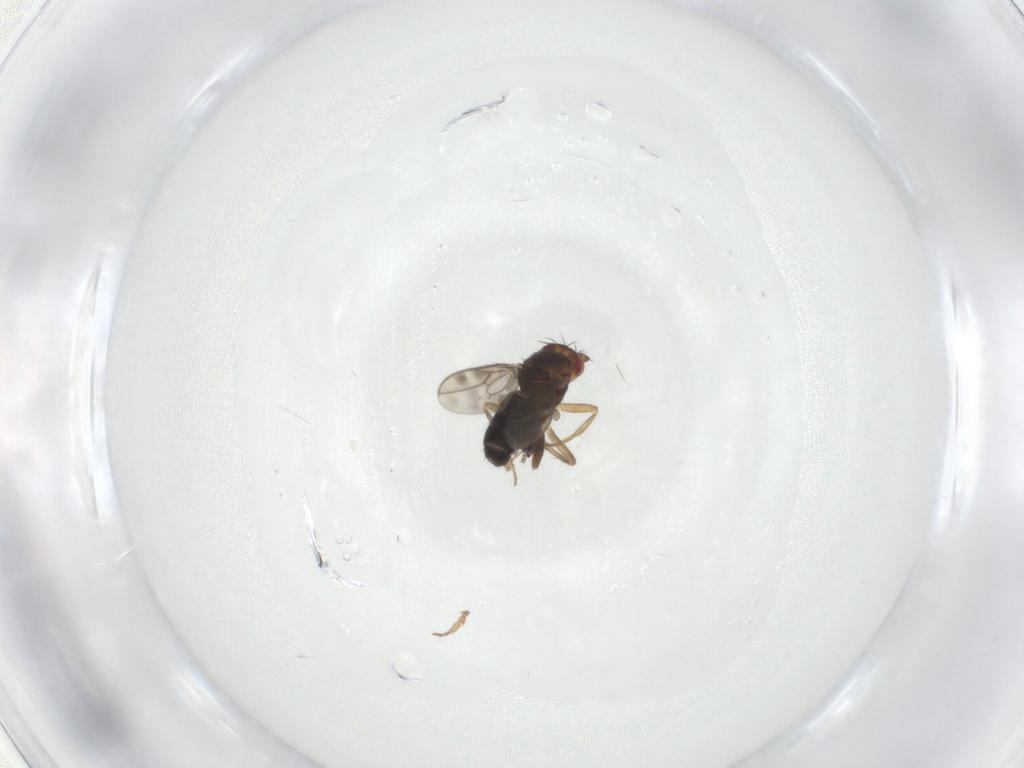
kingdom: Animalia
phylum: Arthropoda
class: Insecta
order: Diptera
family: Sphaeroceridae
